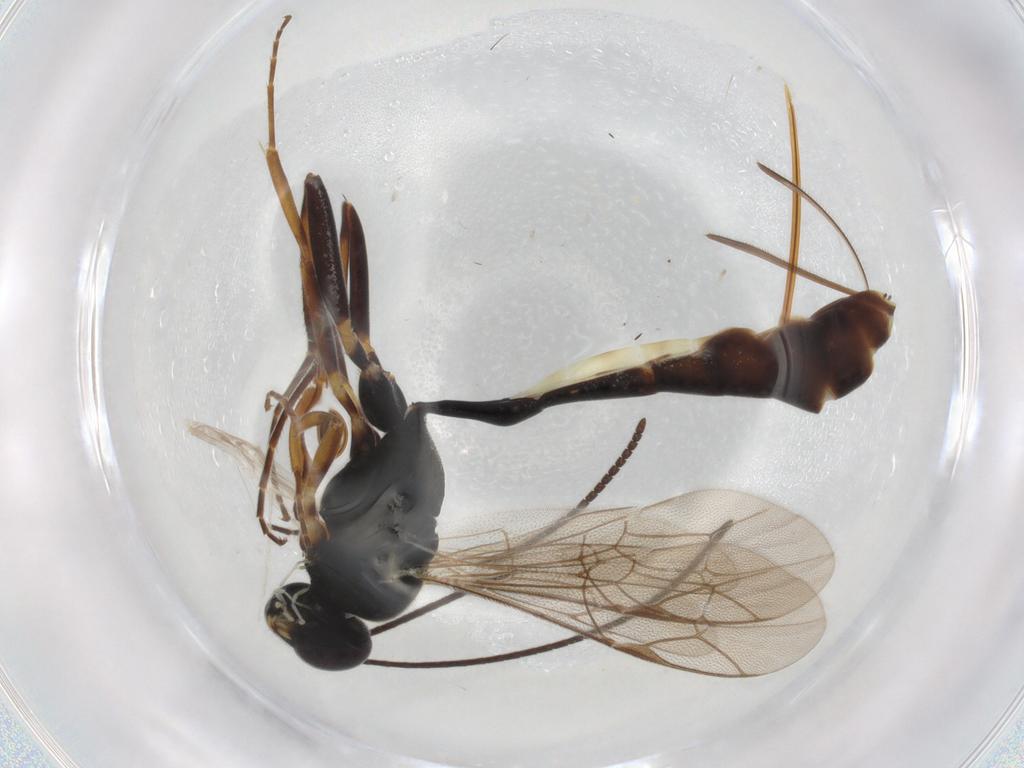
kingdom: Animalia
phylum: Arthropoda
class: Insecta
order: Hymenoptera
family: Ichneumonidae
